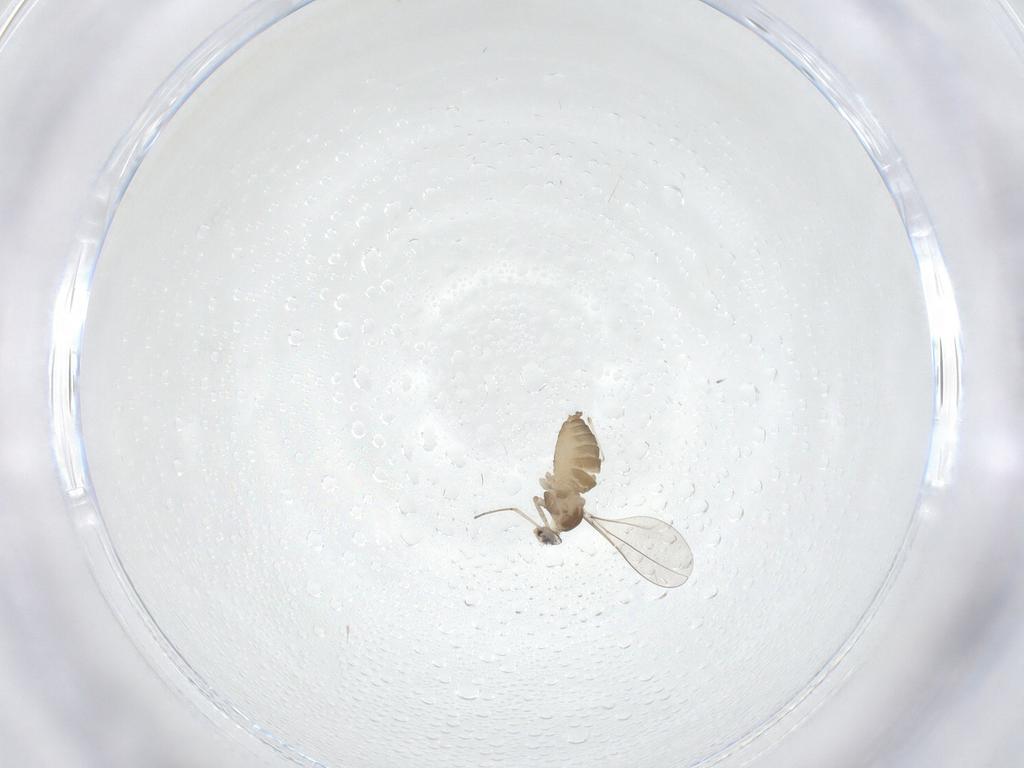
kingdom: Animalia
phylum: Arthropoda
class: Insecta
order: Diptera
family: Cecidomyiidae
